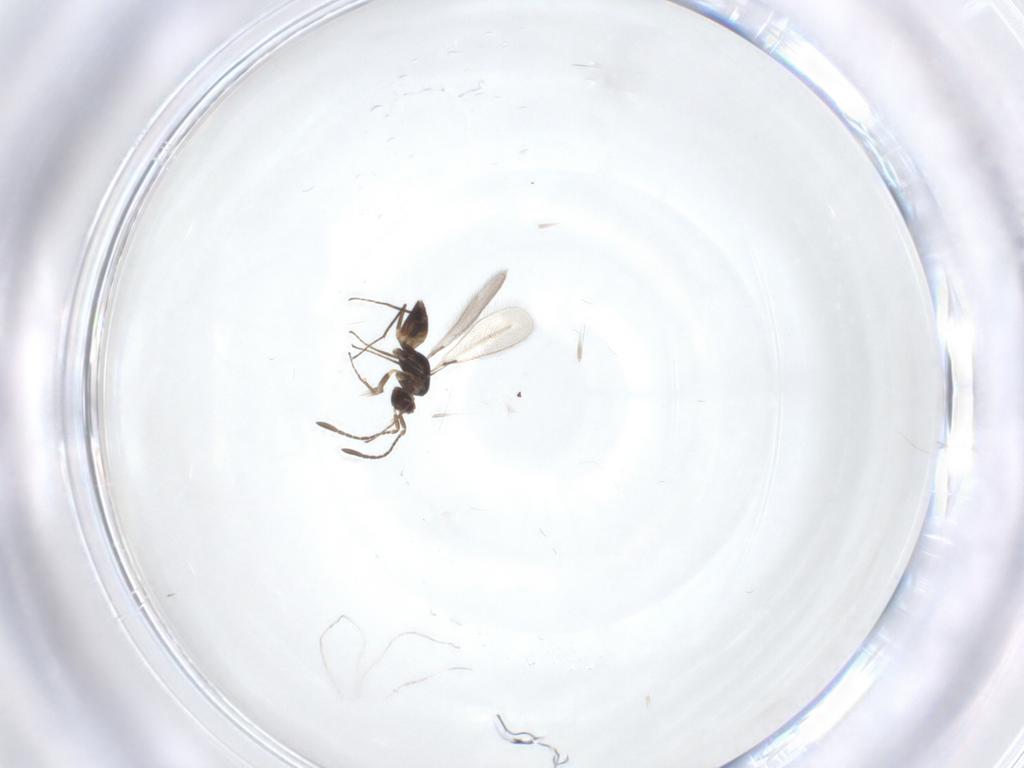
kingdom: Animalia
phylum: Arthropoda
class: Insecta
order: Hymenoptera
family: Mymaridae
